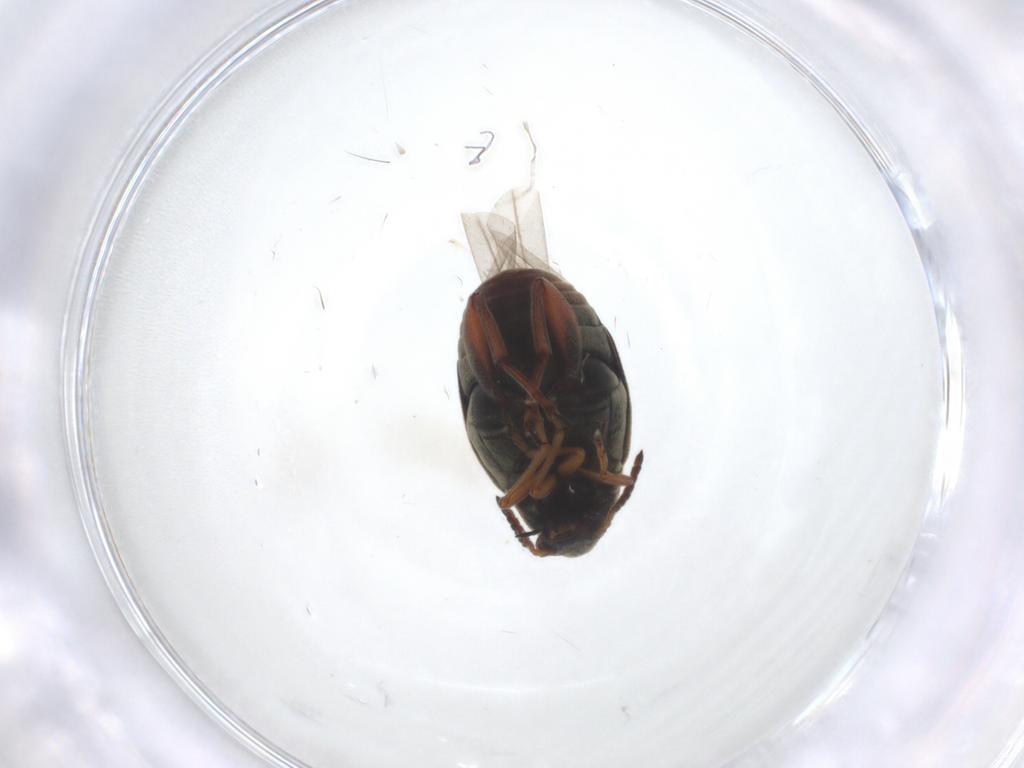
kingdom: Animalia
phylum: Arthropoda
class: Insecta
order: Coleoptera
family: Chrysomelidae
